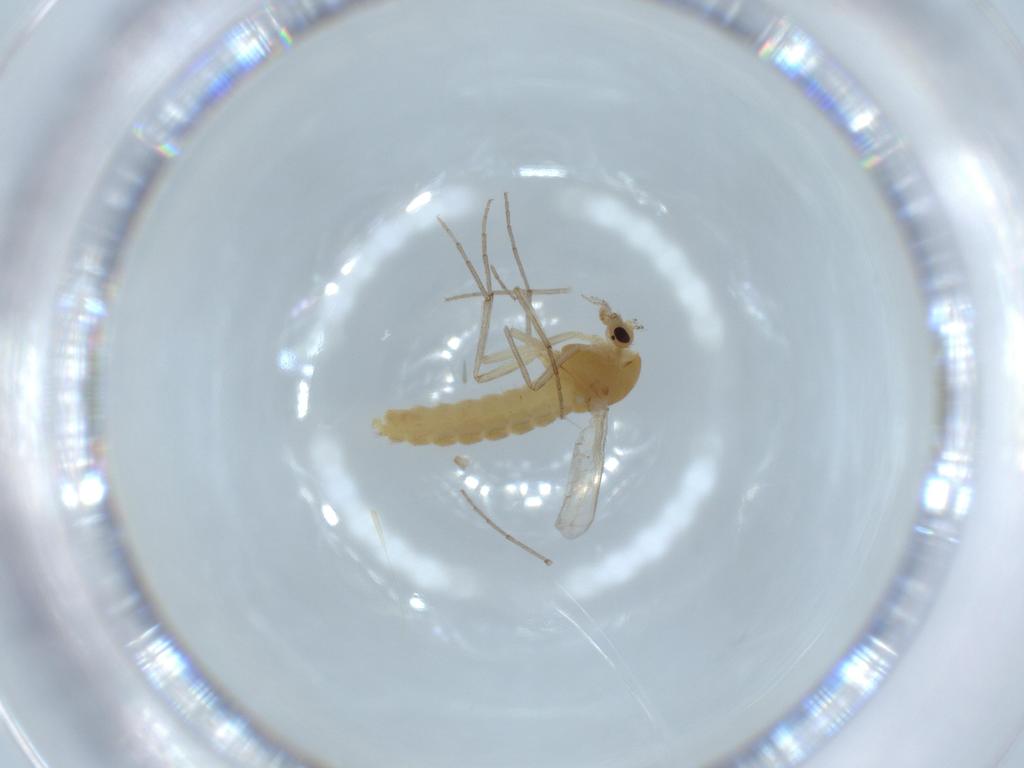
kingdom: Animalia
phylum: Arthropoda
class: Insecta
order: Diptera
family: Chironomidae
